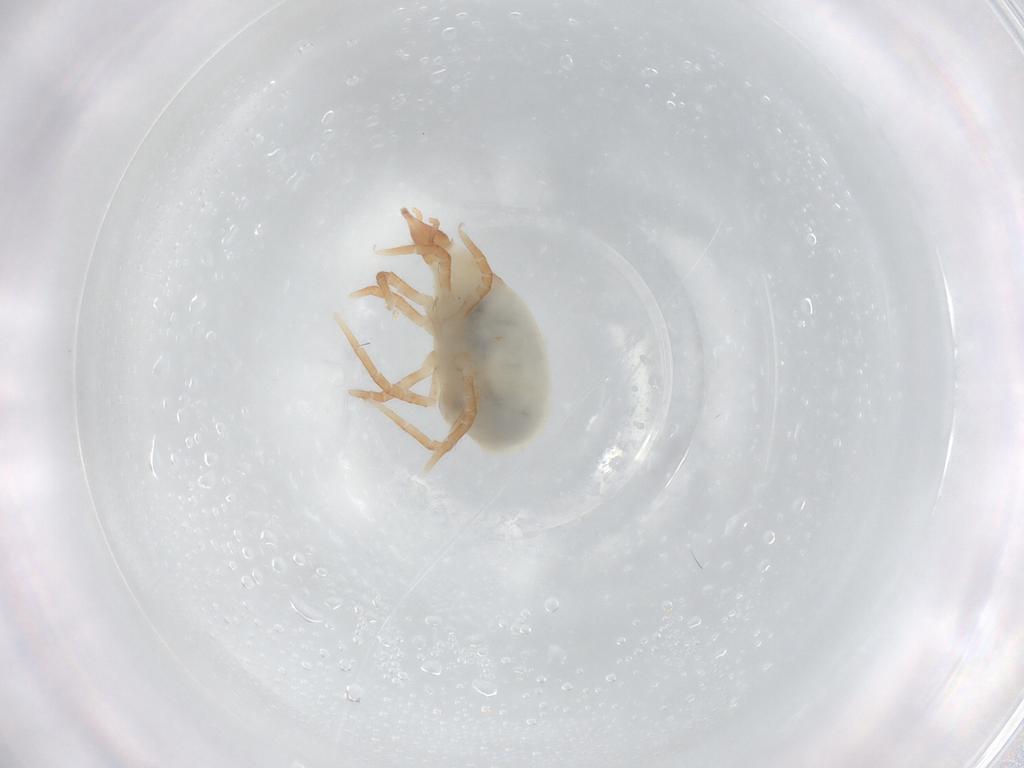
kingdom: Animalia
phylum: Arthropoda
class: Arachnida
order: Trombidiformes
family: Bdellidae
